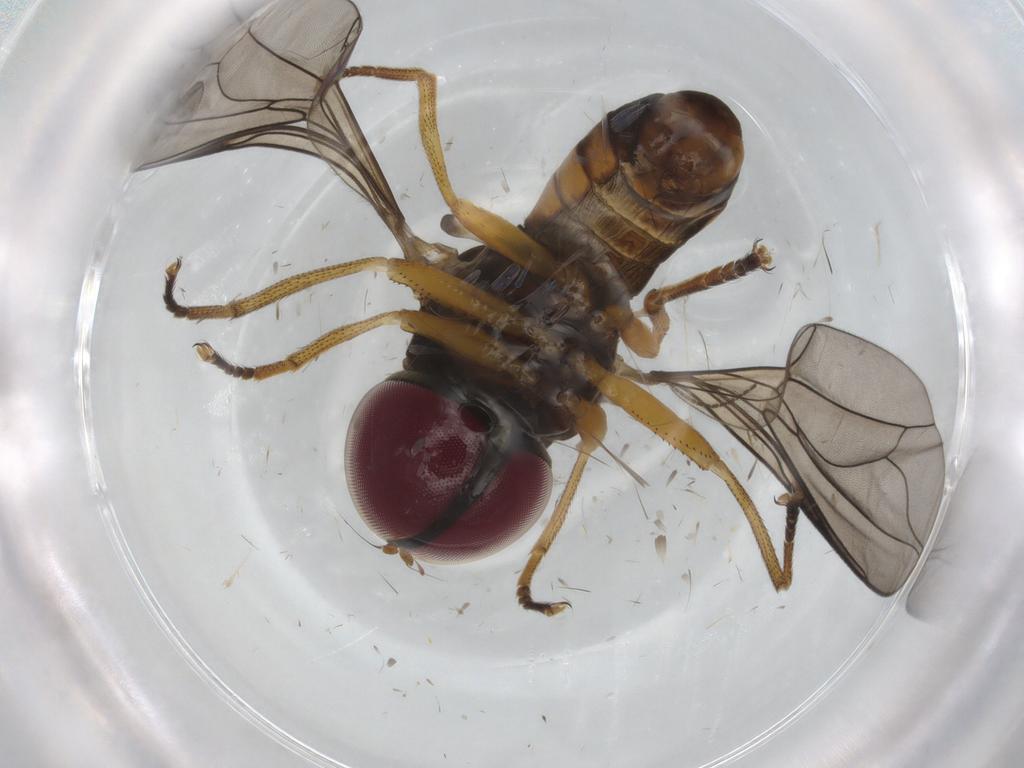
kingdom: Animalia
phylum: Arthropoda
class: Insecta
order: Diptera
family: Pipunculidae
